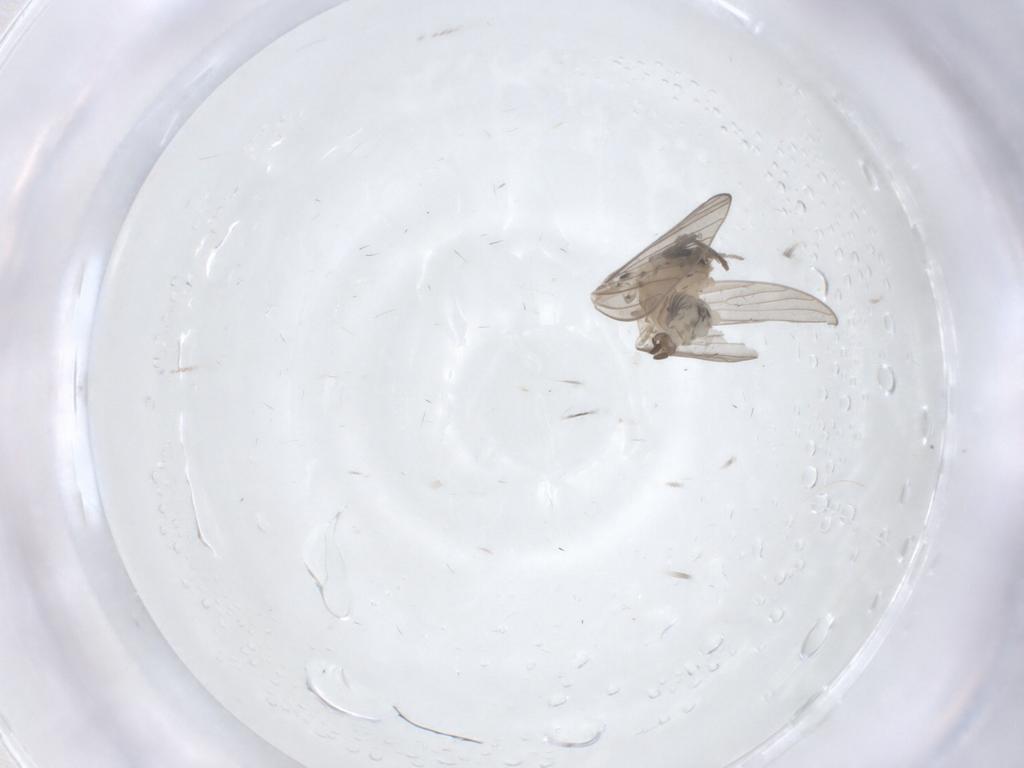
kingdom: Animalia
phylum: Arthropoda
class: Insecta
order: Diptera
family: Psychodidae
